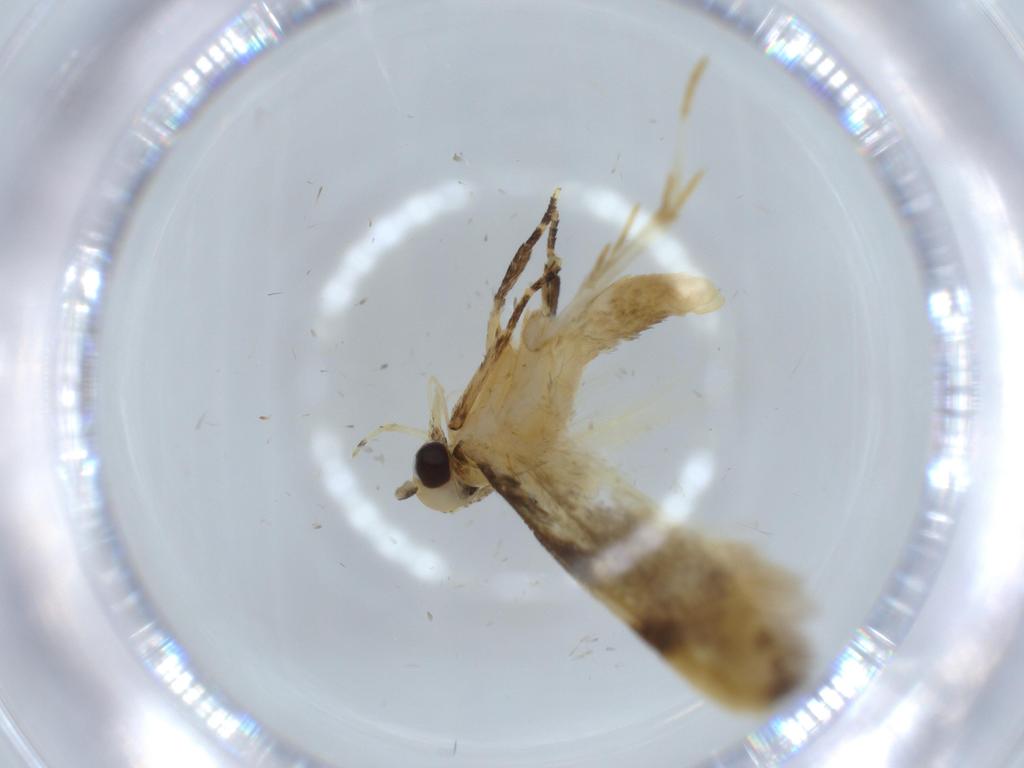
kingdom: Animalia
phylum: Arthropoda
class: Insecta
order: Lepidoptera
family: Autostichidae
